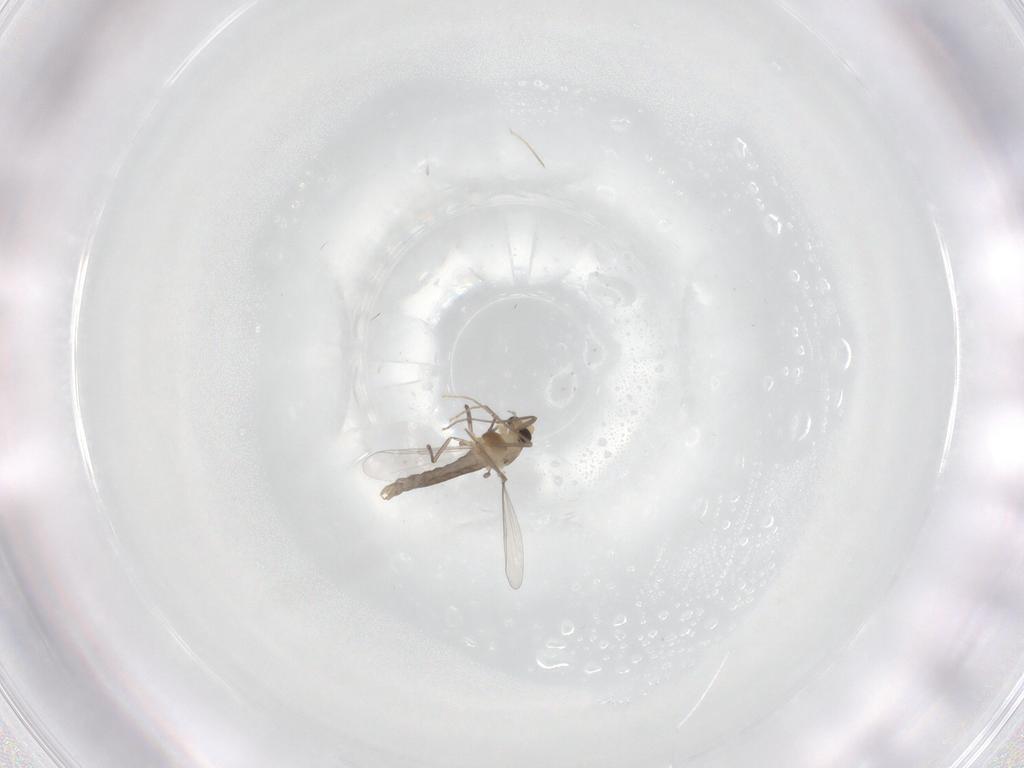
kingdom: Animalia
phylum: Arthropoda
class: Insecta
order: Diptera
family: Chironomidae
